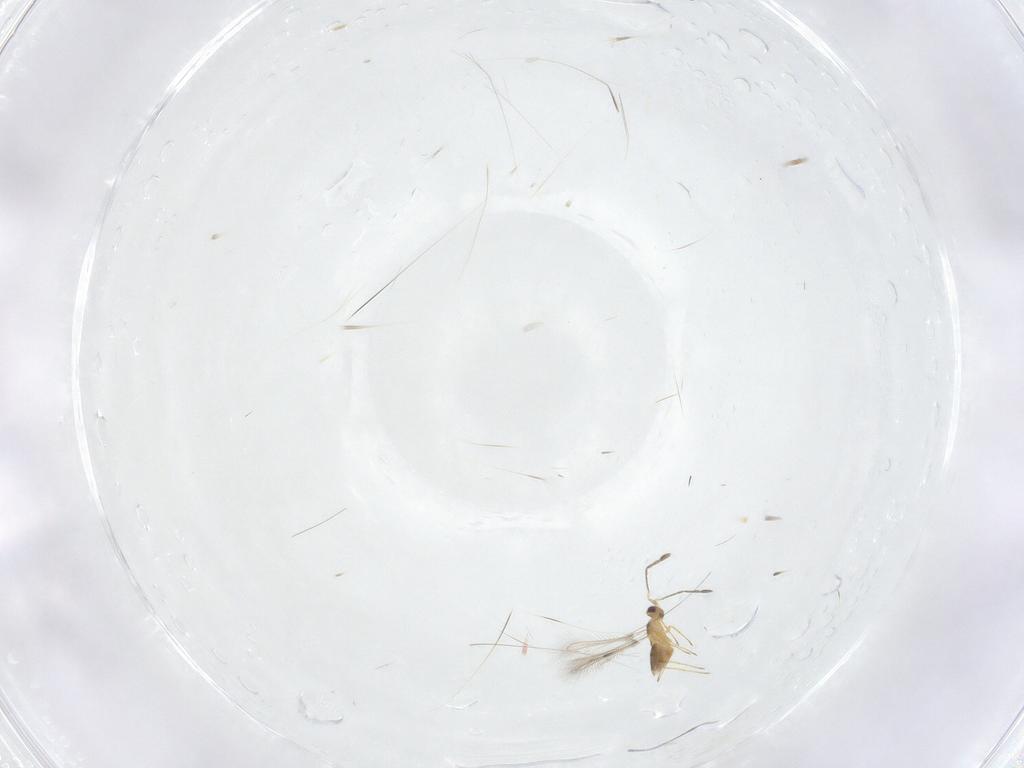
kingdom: Animalia
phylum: Arthropoda
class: Insecta
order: Hymenoptera
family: Mymaridae
